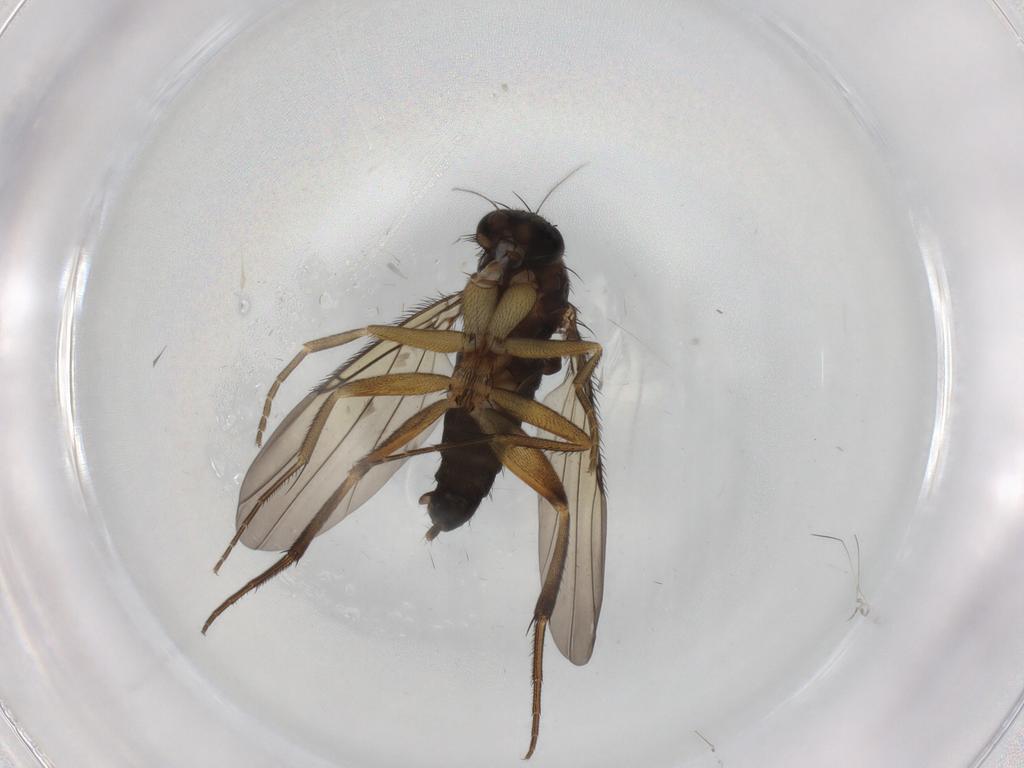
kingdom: Animalia
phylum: Arthropoda
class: Insecta
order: Diptera
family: Phoridae
